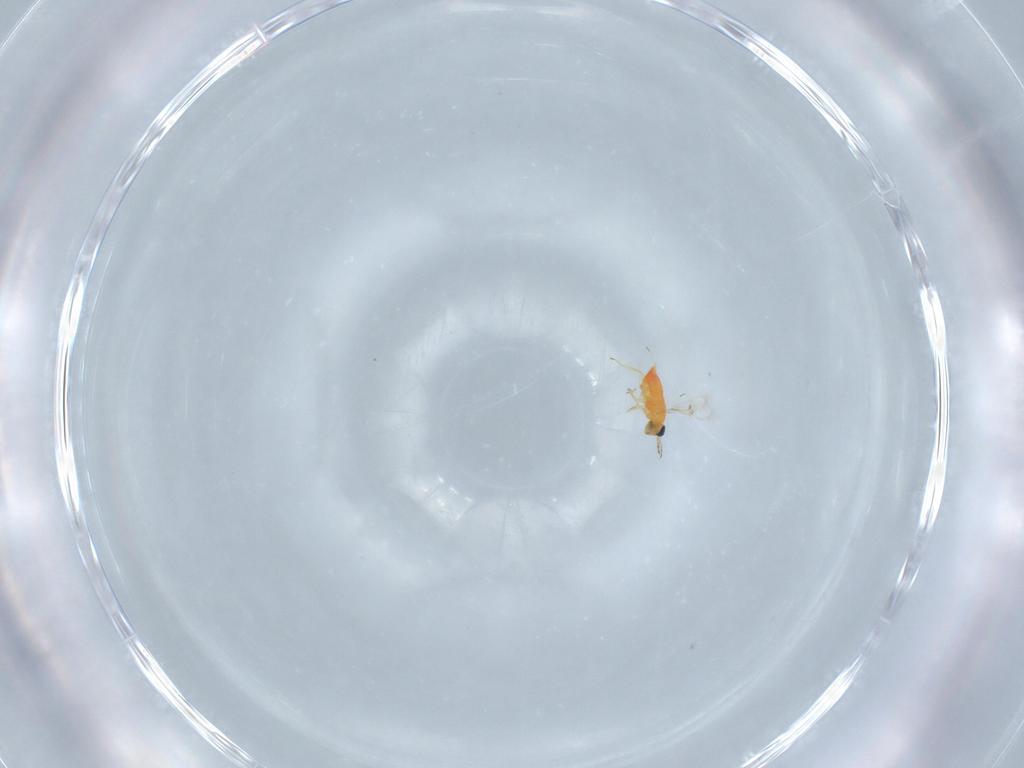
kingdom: Animalia
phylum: Arthropoda
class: Insecta
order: Hymenoptera
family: Trichogrammatidae
